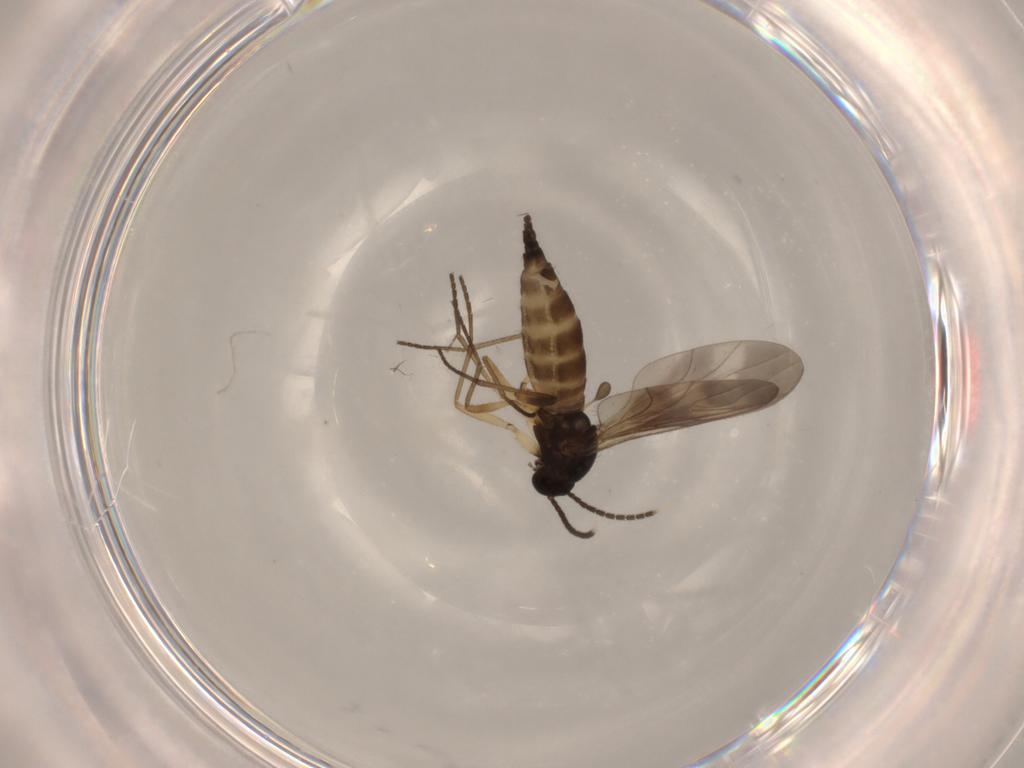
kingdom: Animalia
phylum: Arthropoda
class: Insecta
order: Diptera
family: Sciaridae
